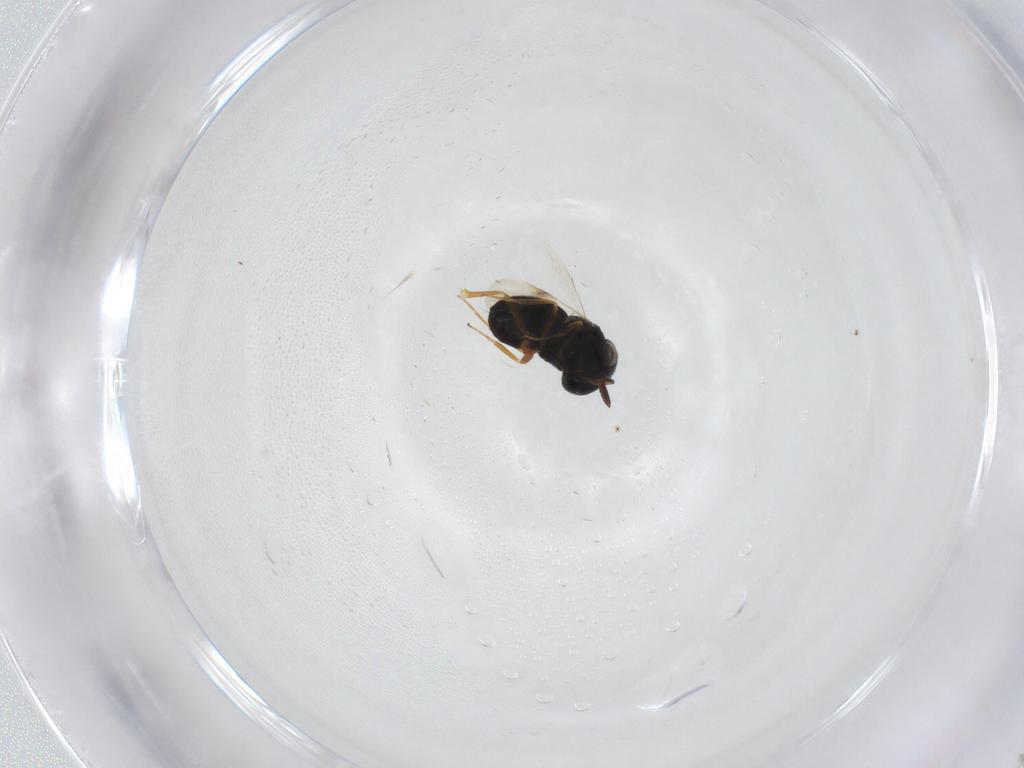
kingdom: Animalia
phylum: Arthropoda
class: Insecta
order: Hymenoptera
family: Scelionidae
